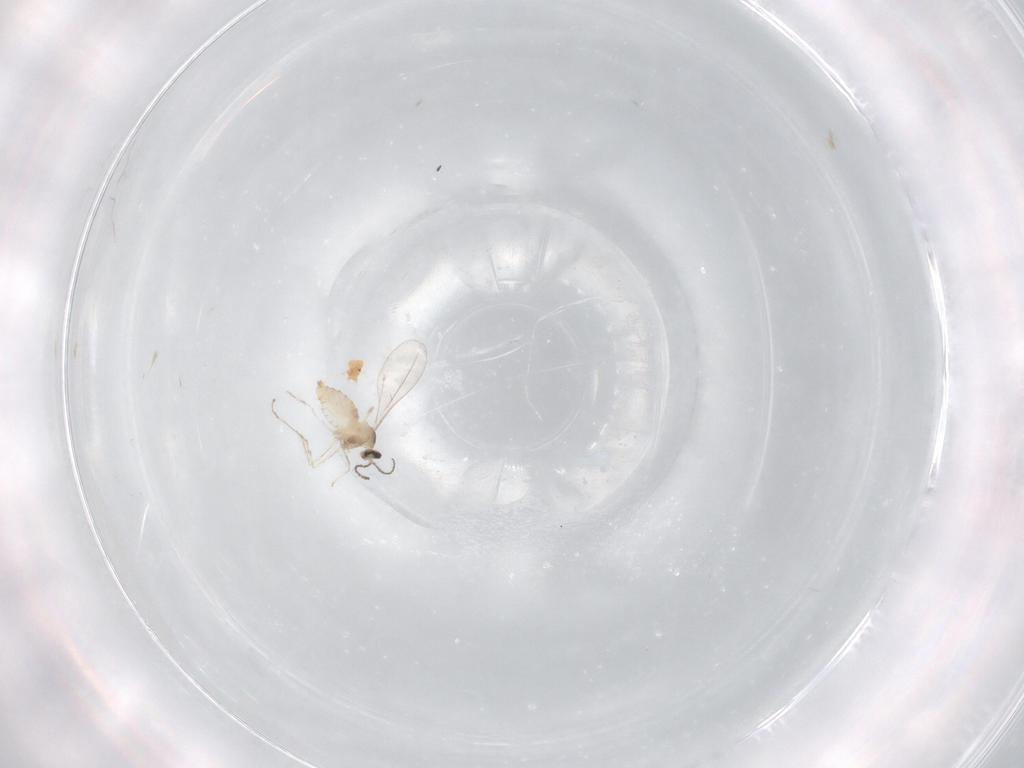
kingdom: Animalia
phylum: Arthropoda
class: Insecta
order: Diptera
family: Cecidomyiidae
